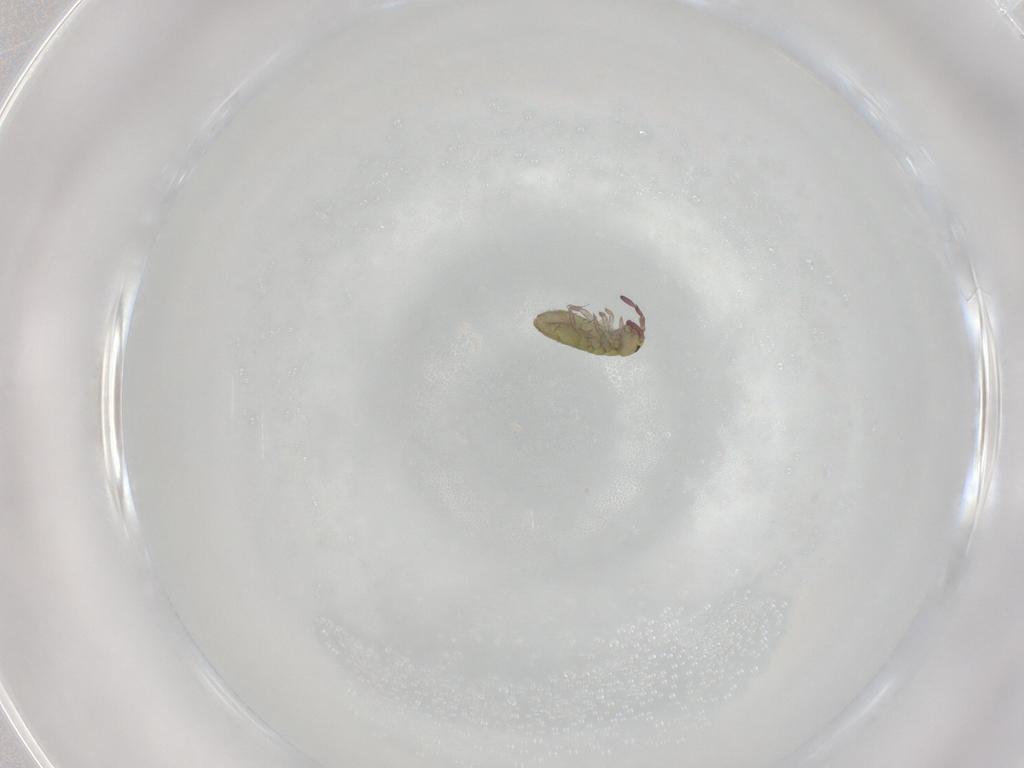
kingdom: Animalia
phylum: Arthropoda
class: Collembola
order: Entomobryomorpha
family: Isotomidae
